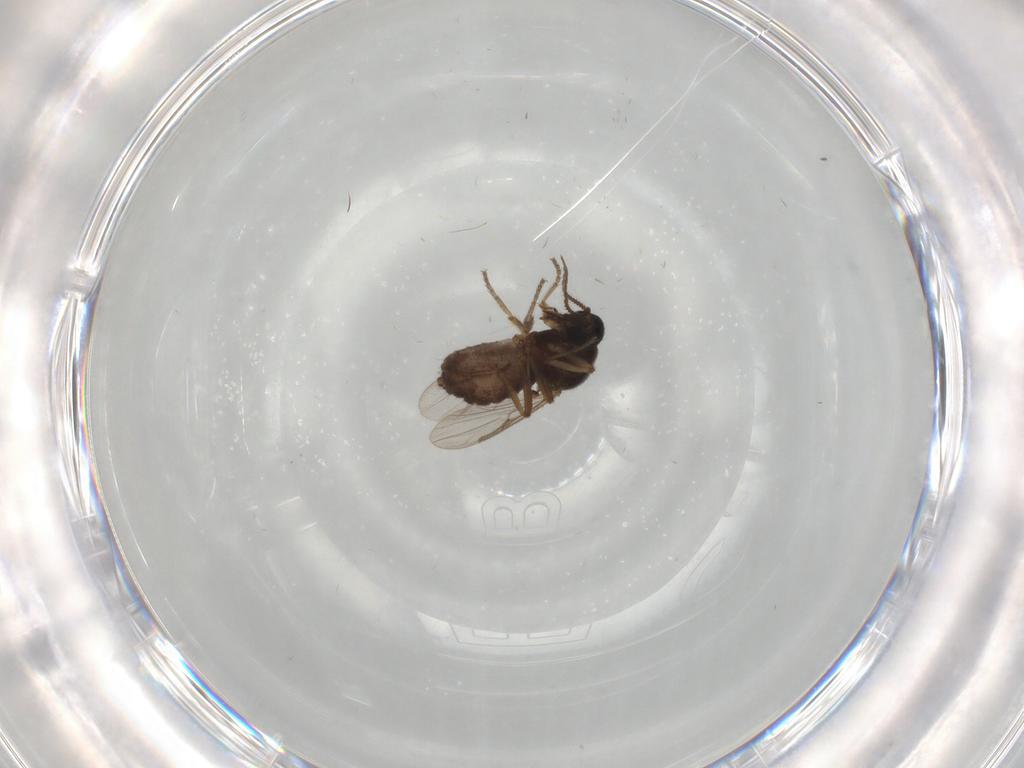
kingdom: Animalia
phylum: Arthropoda
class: Insecta
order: Diptera
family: Ceratopogonidae
